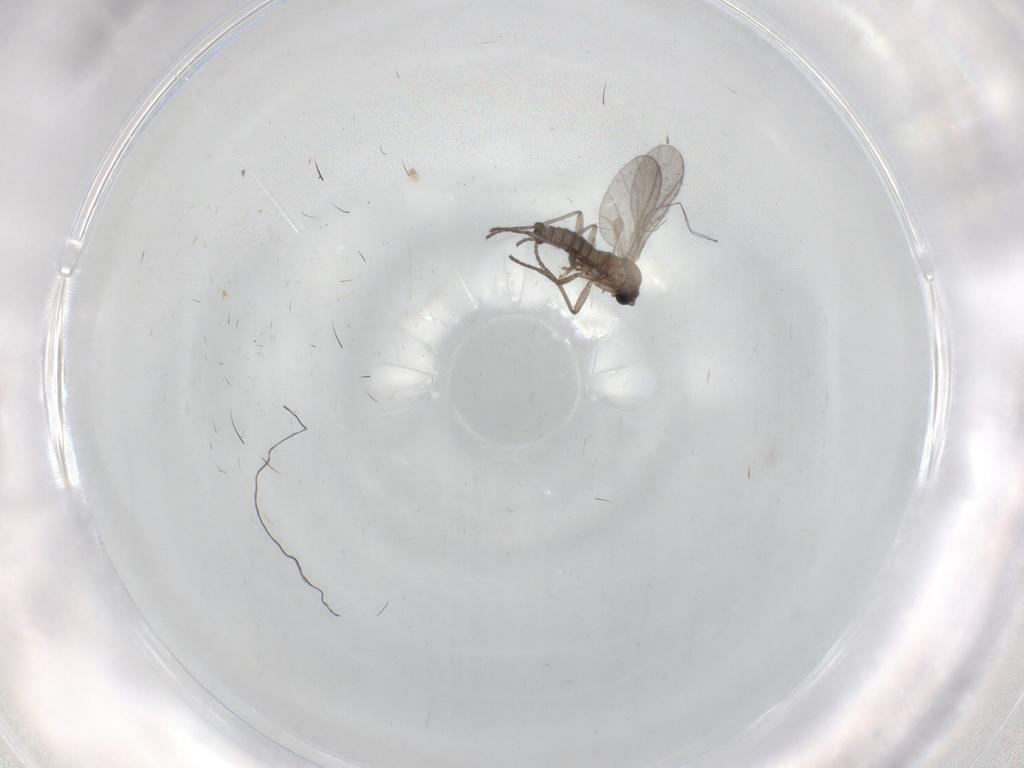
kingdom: Animalia
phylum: Arthropoda
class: Insecta
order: Diptera
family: Sciaridae
